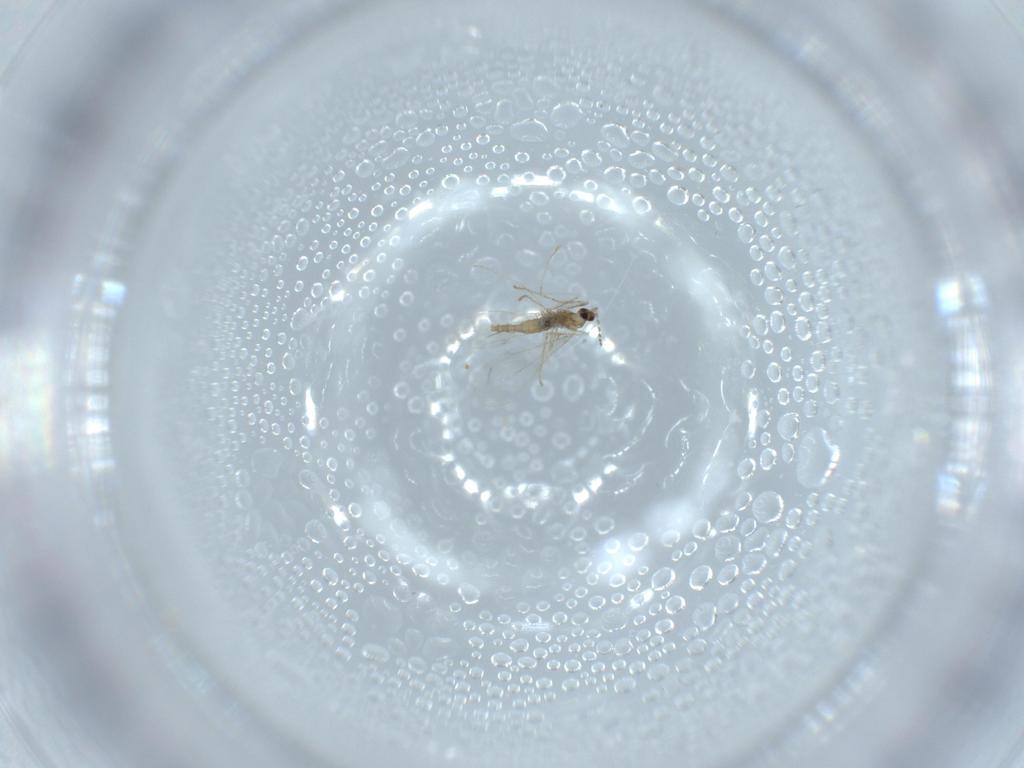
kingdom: Animalia
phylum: Arthropoda
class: Insecta
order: Diptera
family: Cecidomyiidae
